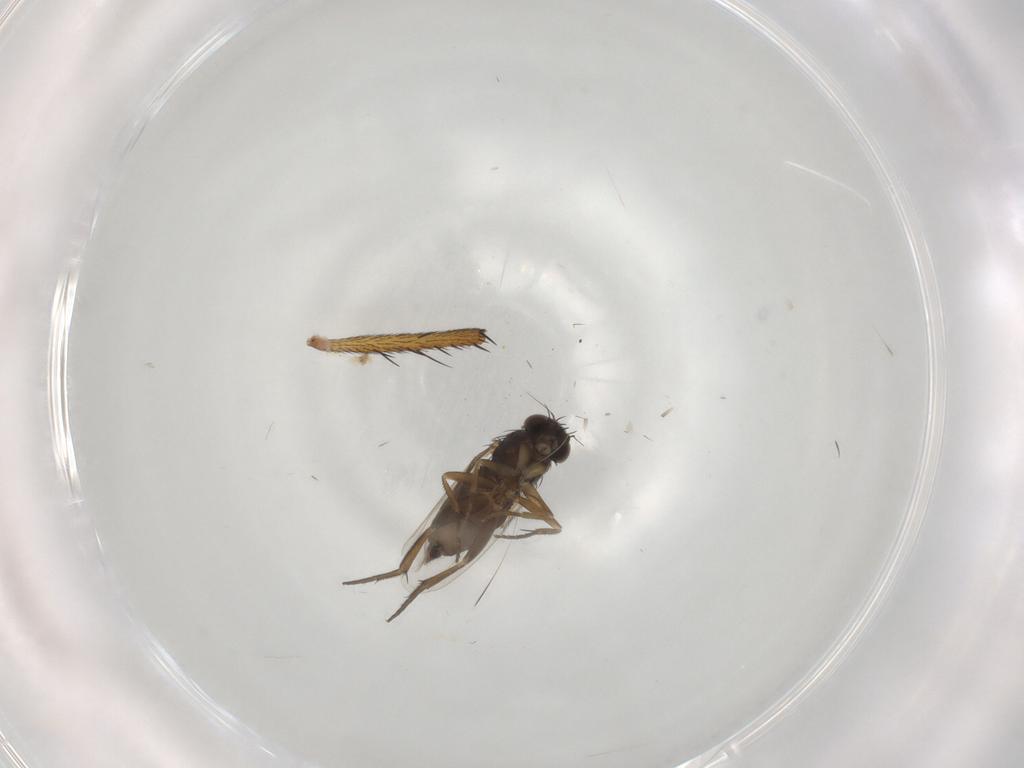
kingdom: Animalia
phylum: Arthropoda
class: Insecta
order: Diptera
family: Phoridae
